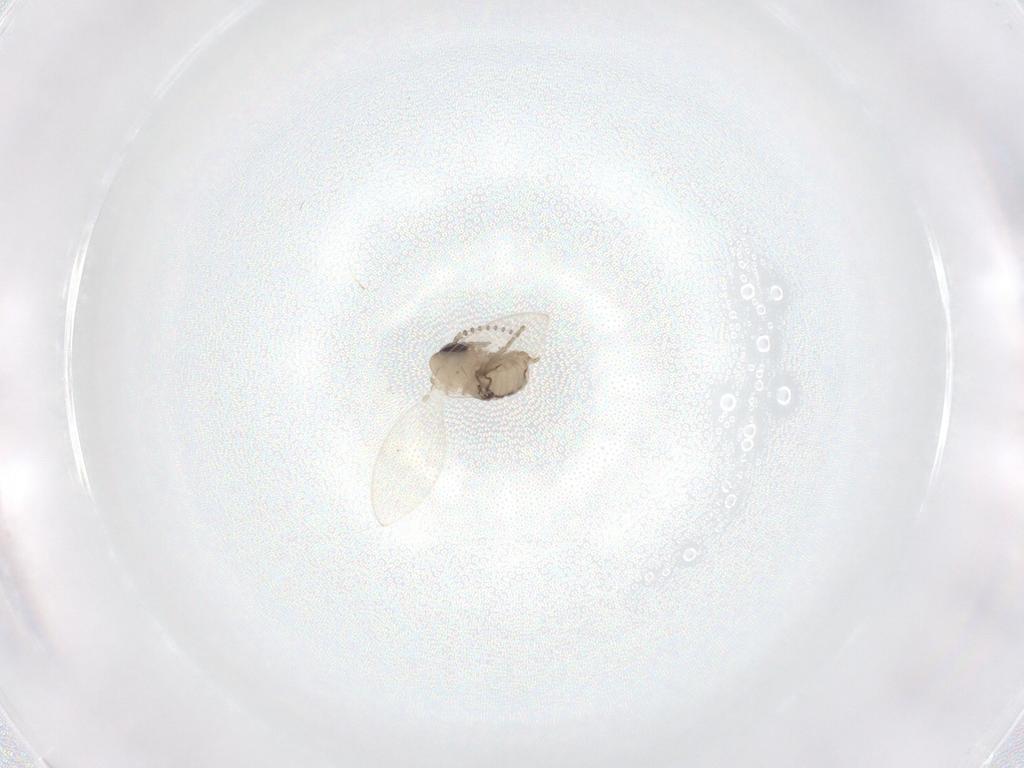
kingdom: Animalia
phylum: Arthropoda
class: Insecta
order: Diptera
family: Psychodidae
